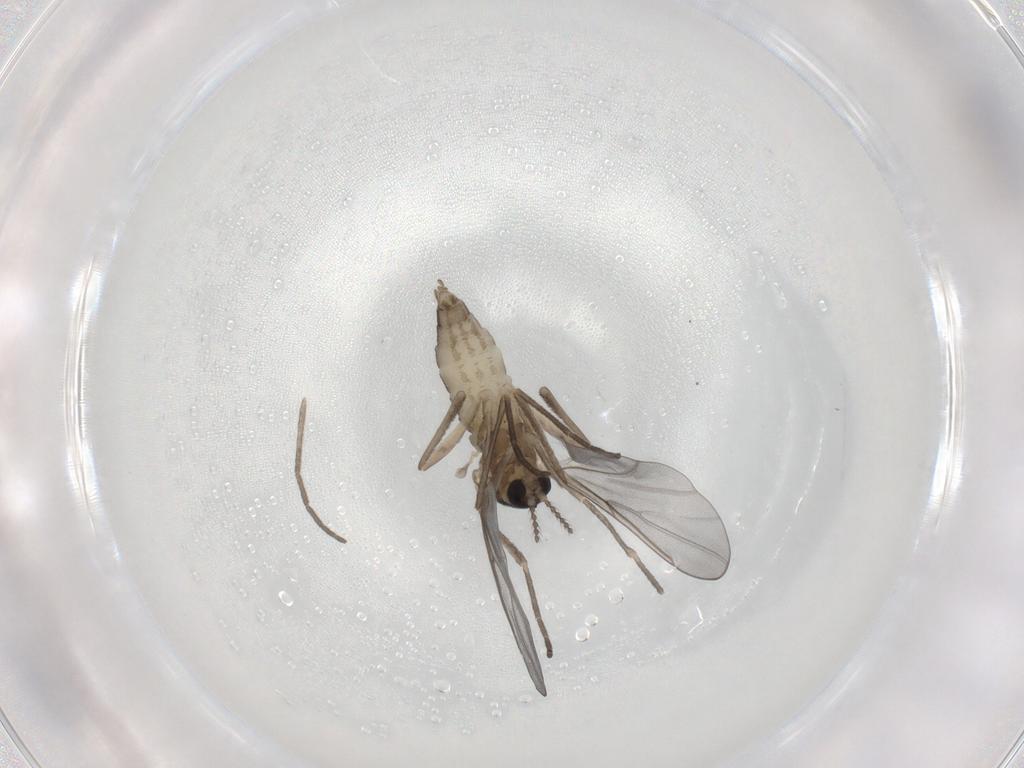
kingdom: Animalia
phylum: Arthropoda
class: Insecta
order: Diptera
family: Cecidomyiidae
